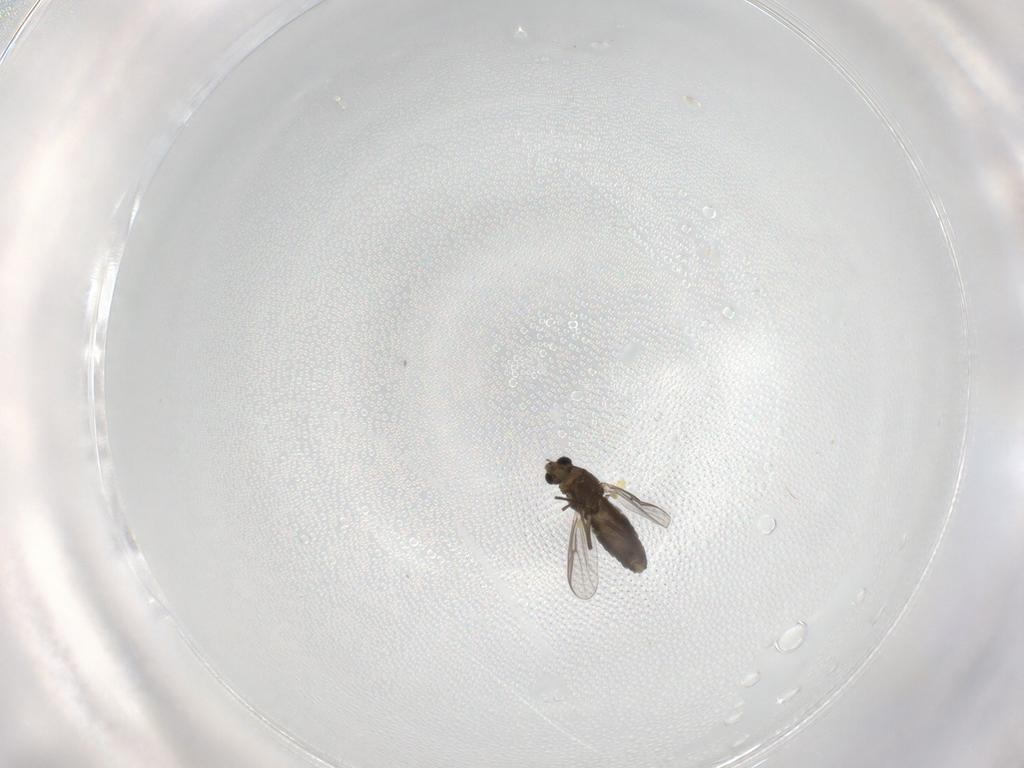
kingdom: Animalia
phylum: Arthropoda
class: Insecta
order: Diptera
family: Chironomidae
